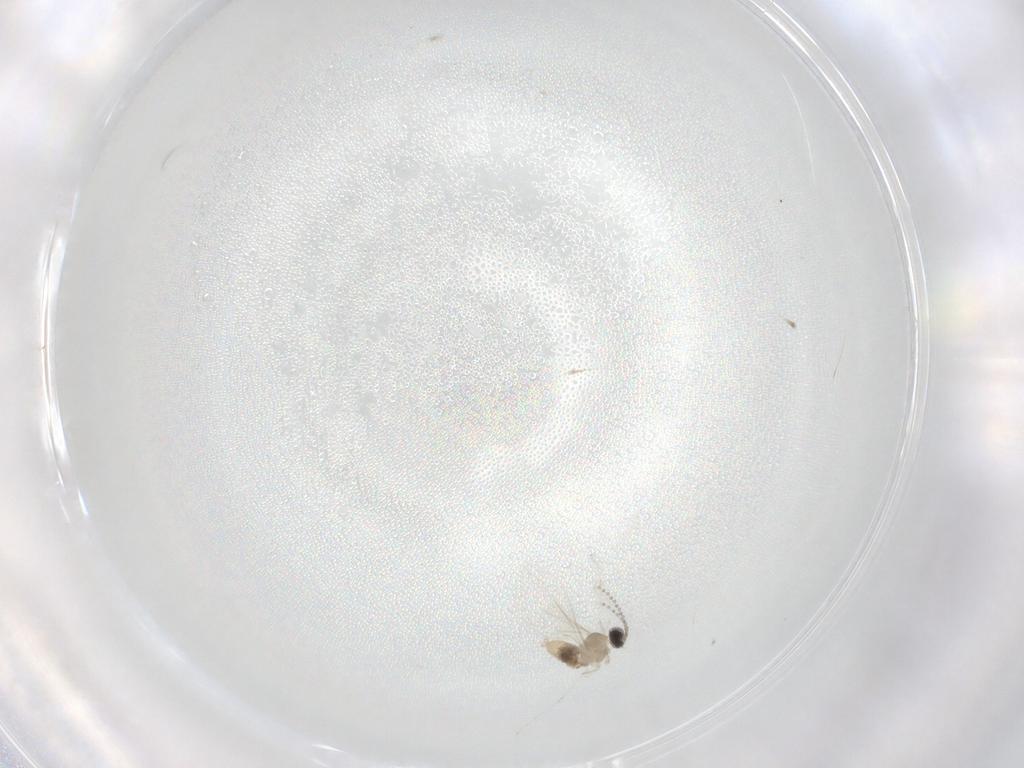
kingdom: Animalia
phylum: Arthropoda
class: Insecta
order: Diptera
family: Cecidomyiidae
